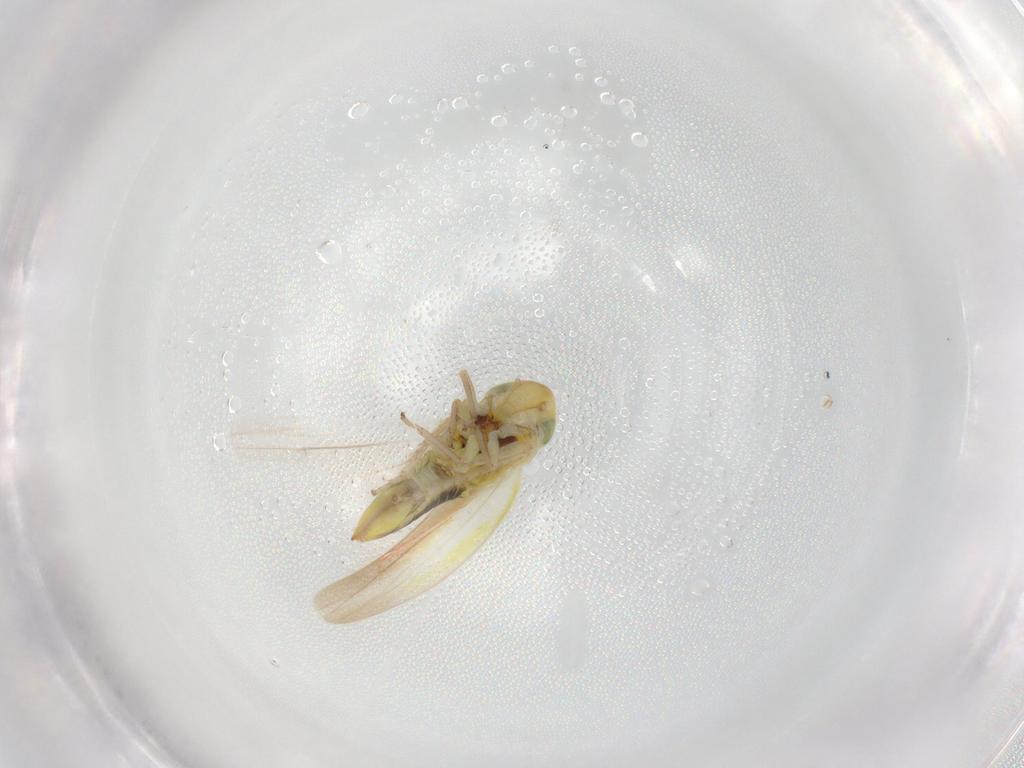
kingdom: Animalia
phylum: Arthropoda
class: Insecta
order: Hemiptera
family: Cicadellidae
